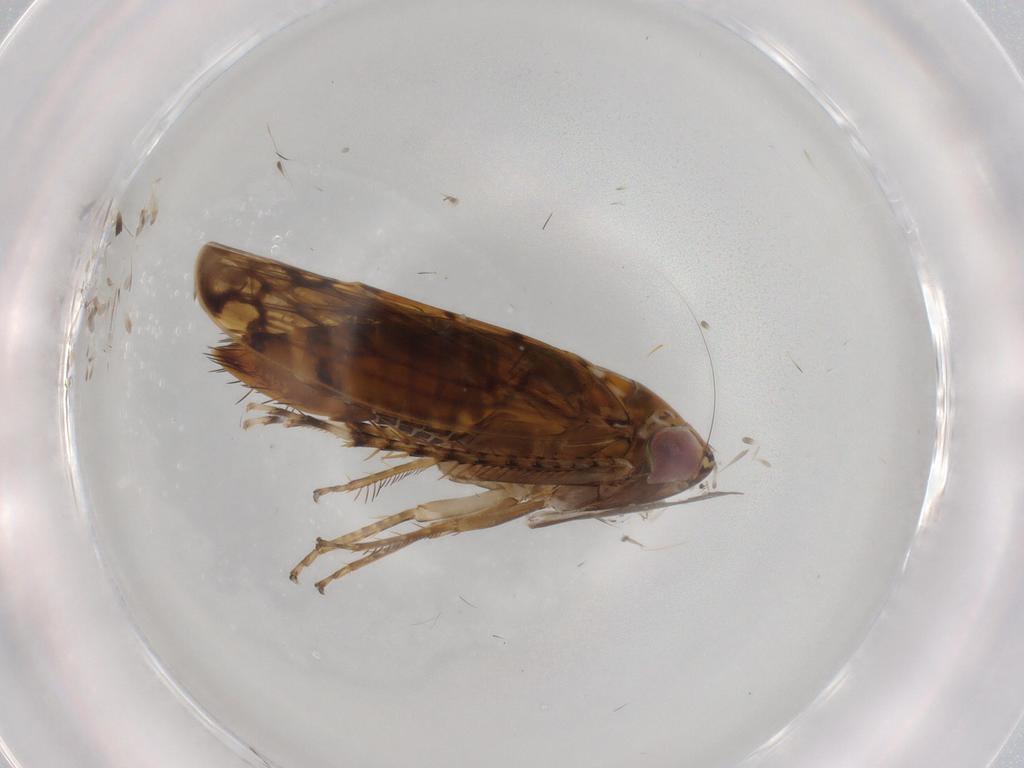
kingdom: Animalia
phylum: Arthropoda
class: Insecta
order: Hemiptera
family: Cicadellidae
